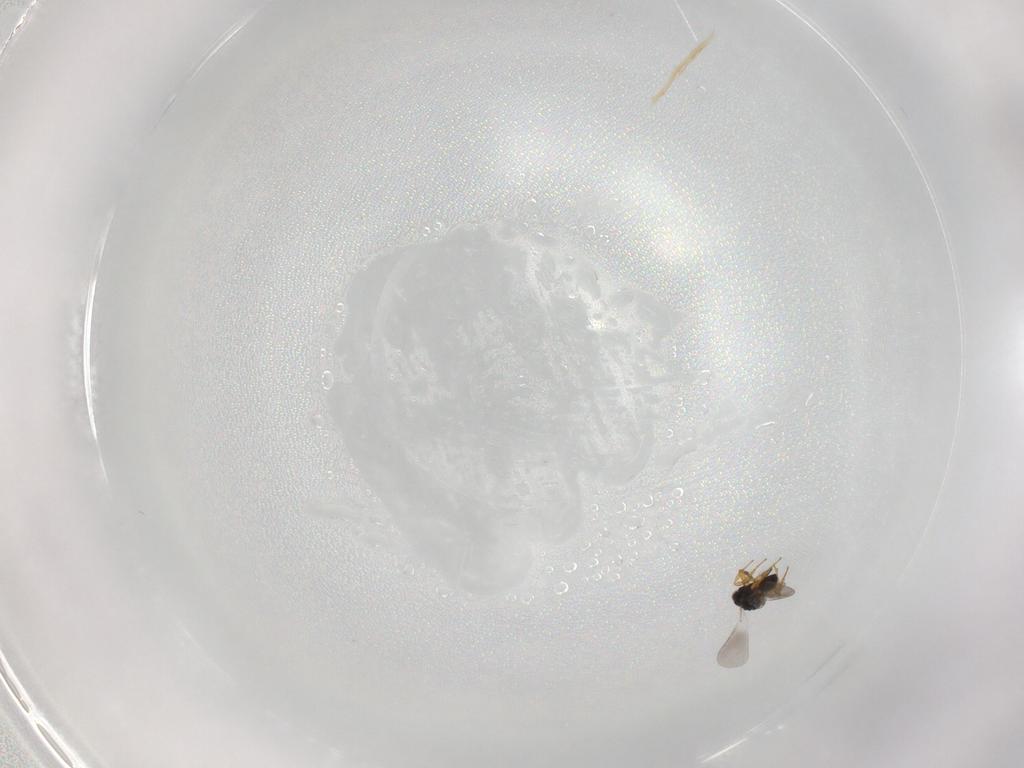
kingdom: Animalia
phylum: Arthropoda
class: Insecta
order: Hymenoptera
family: Platygastridae
